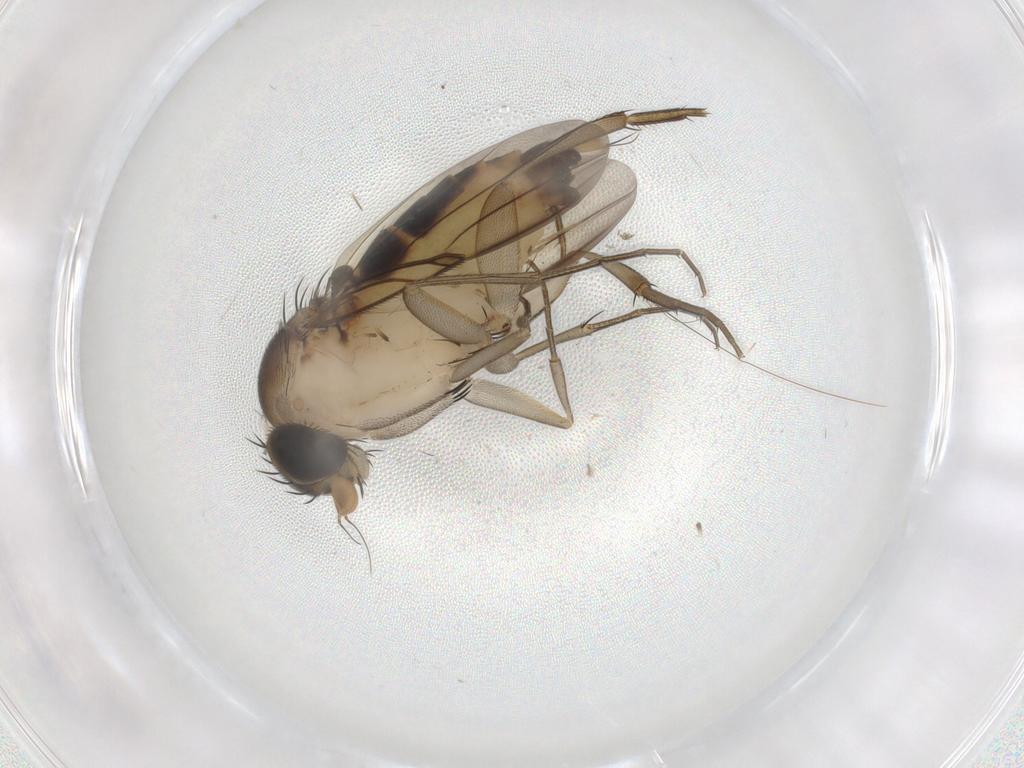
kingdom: Animalia
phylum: Arthropoda
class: Insecta
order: Diptera
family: Phoridae
